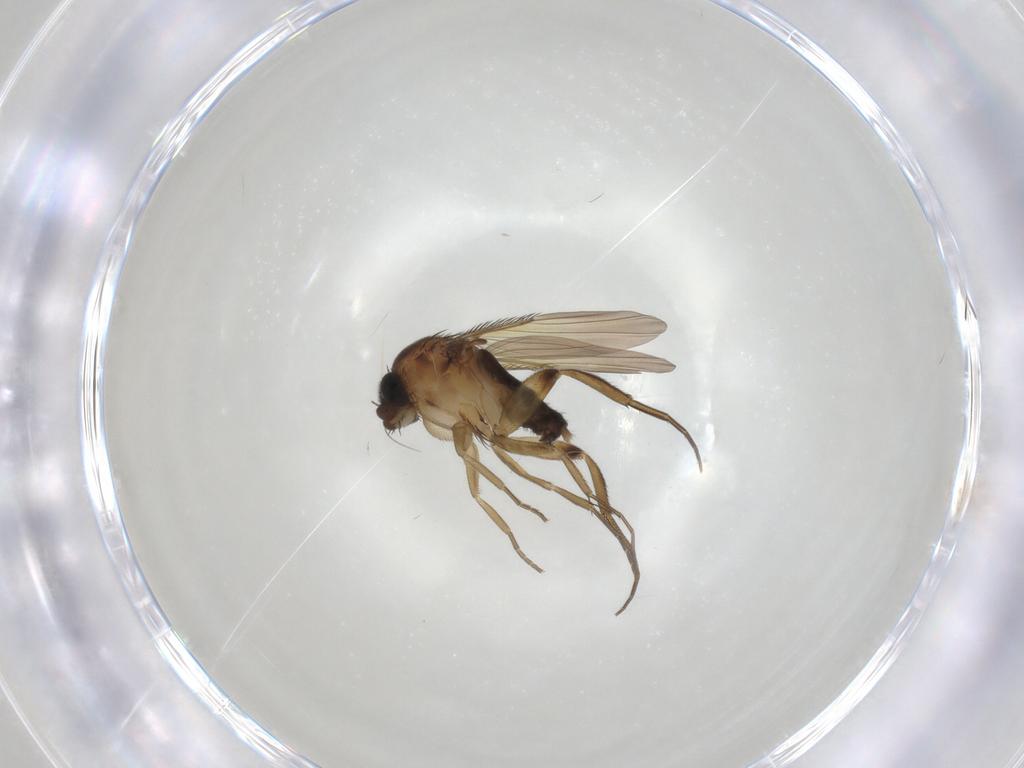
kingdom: Animalia
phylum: Arthropoda
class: Insecta
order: Diptera
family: Phoridae
